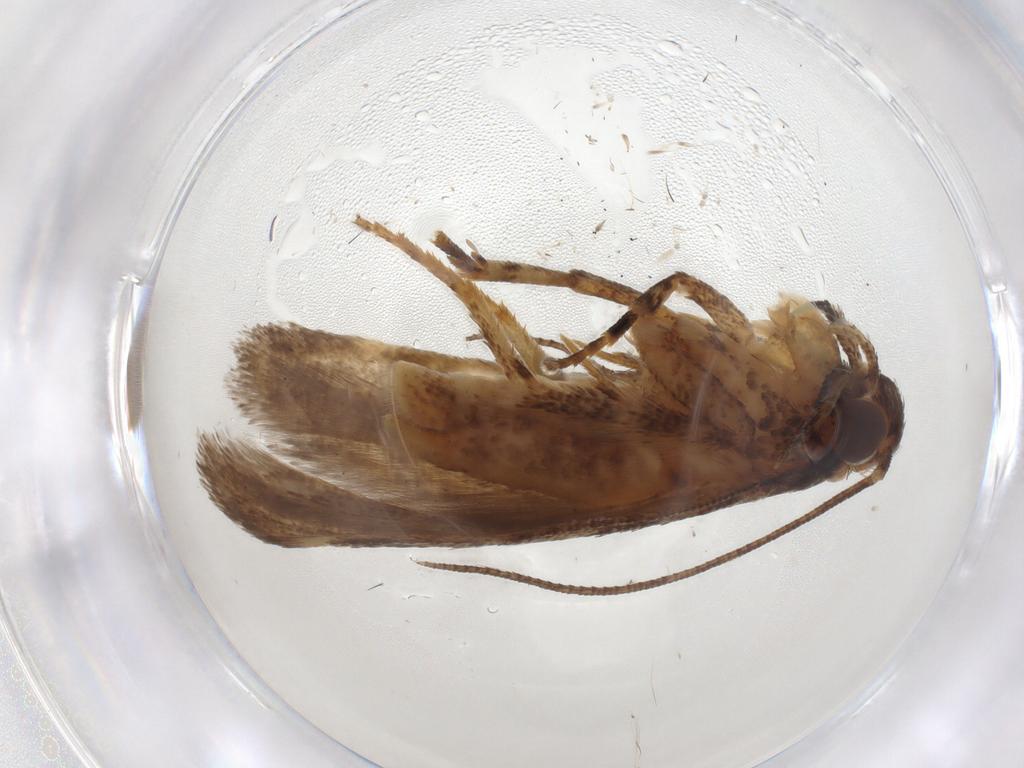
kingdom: Animalia
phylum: Arthropoda
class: Insecta
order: Lepidoptera
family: Gelechiidae
